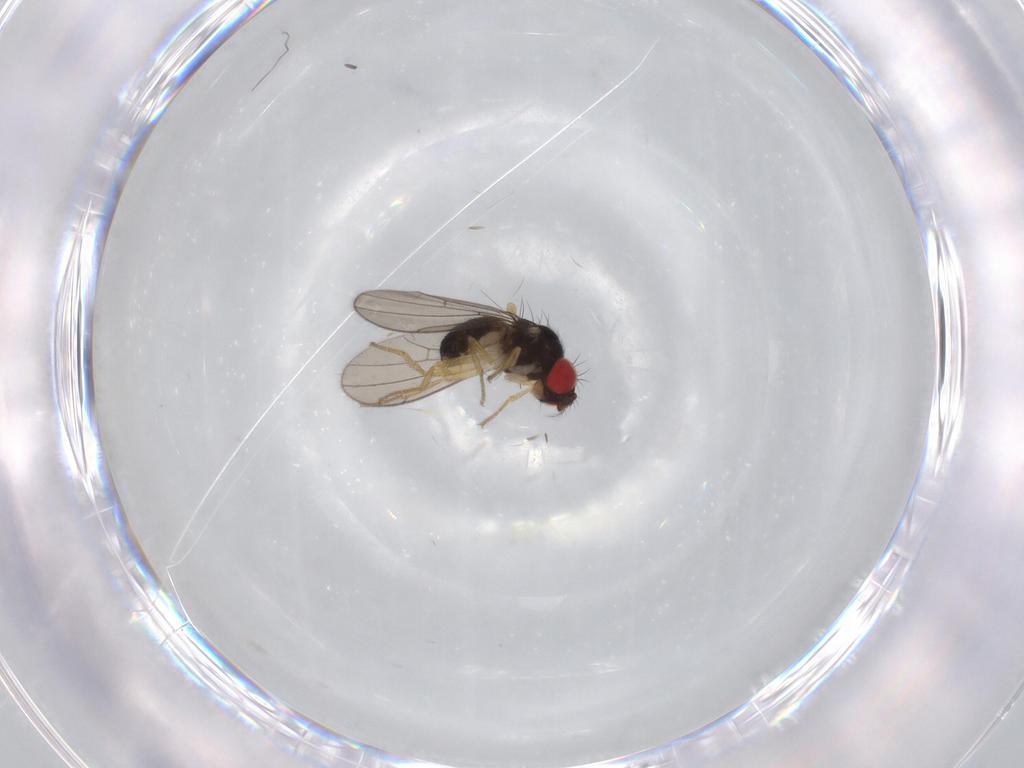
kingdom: Animalia
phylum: Arthropoda
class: Insecta
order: Diptera
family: Drosophilidae
